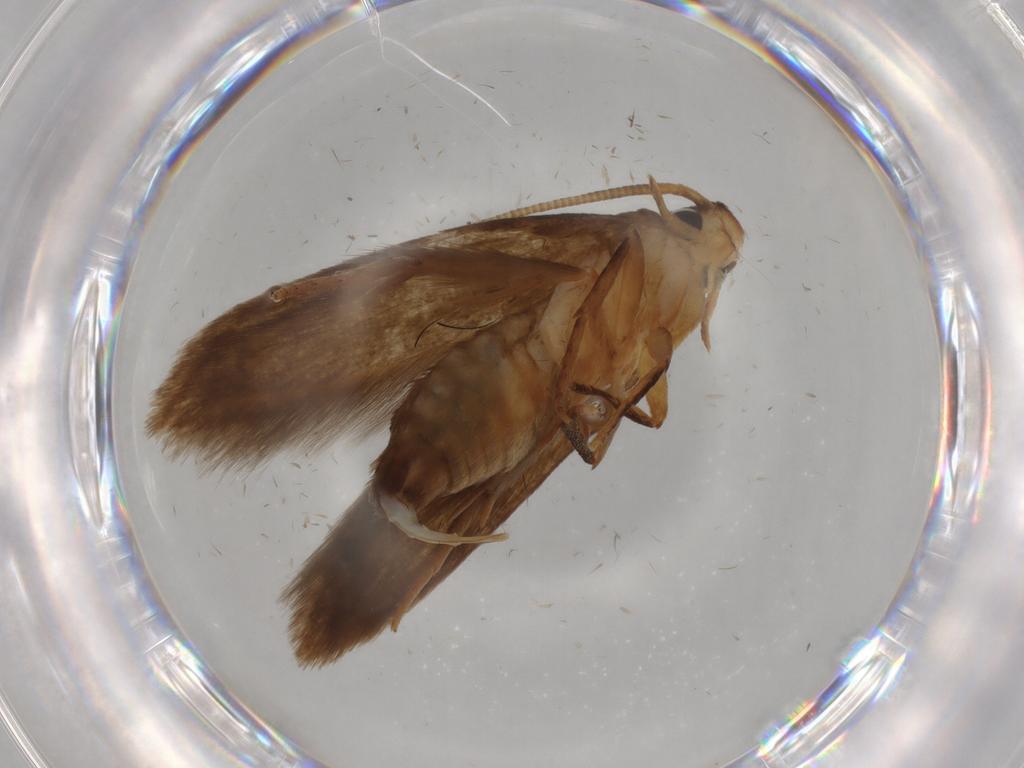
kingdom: Animalia
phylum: Arthropoda
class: Insecta
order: Lepidoptera
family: Tineidae
